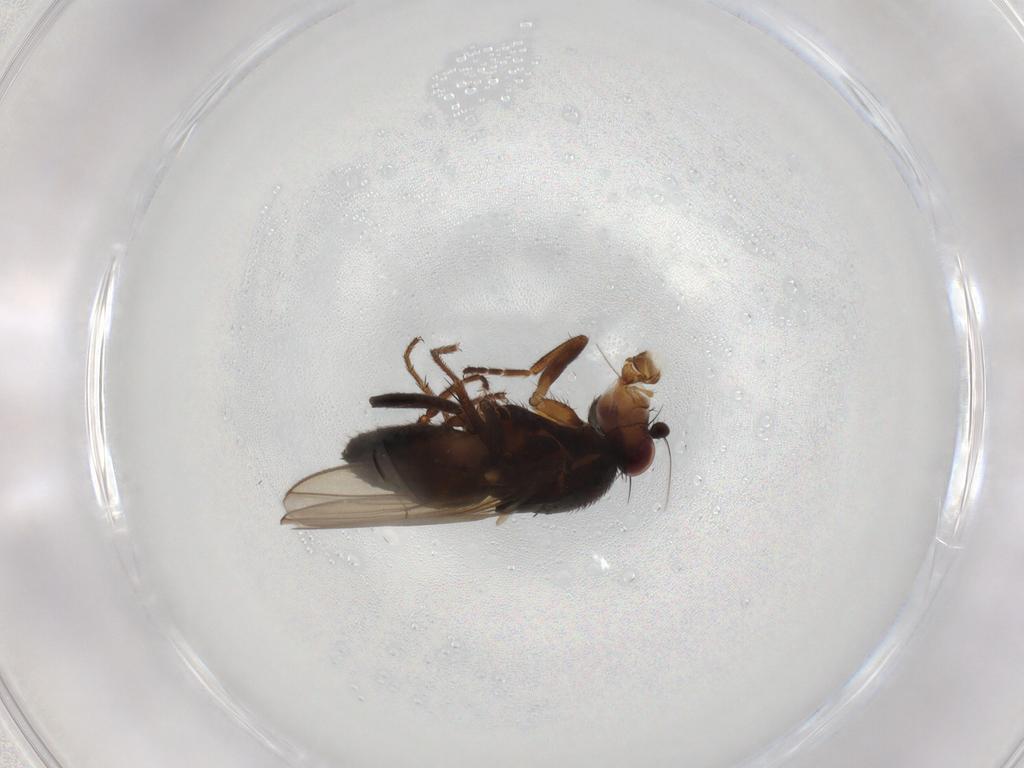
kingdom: Animalia
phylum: Arthropoda
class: Insecta
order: Diptera
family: Sphaeroceridae
